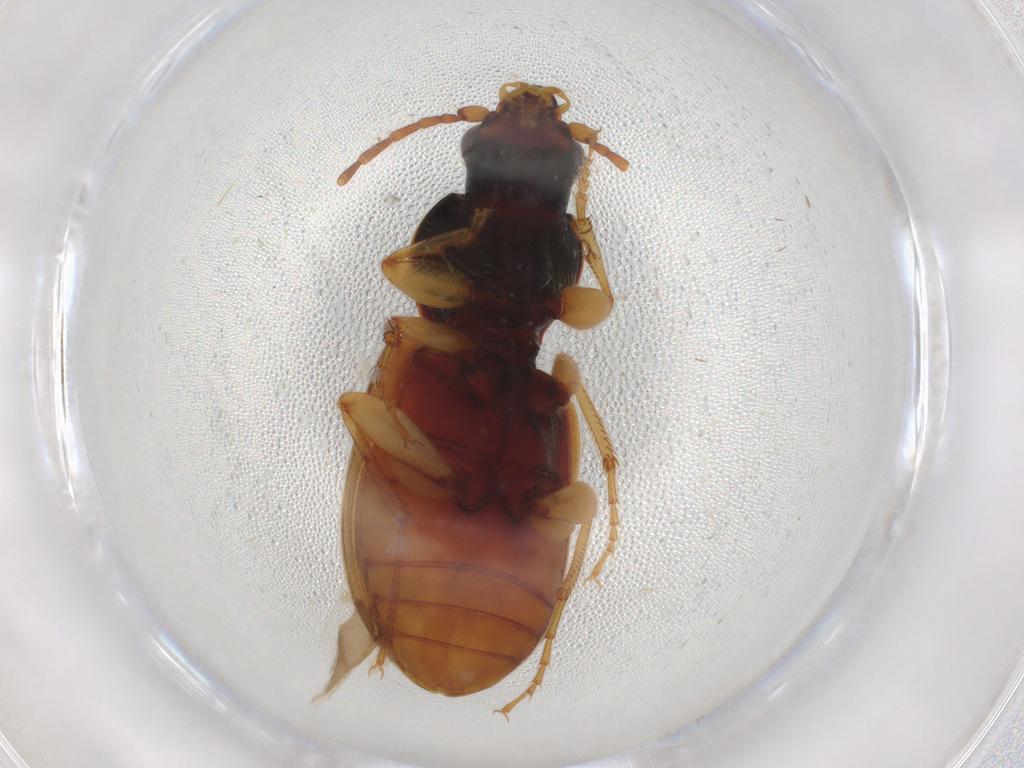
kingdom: Animalia
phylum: Arthropoda
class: Insecta
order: Coleoptera
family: Carabidae
